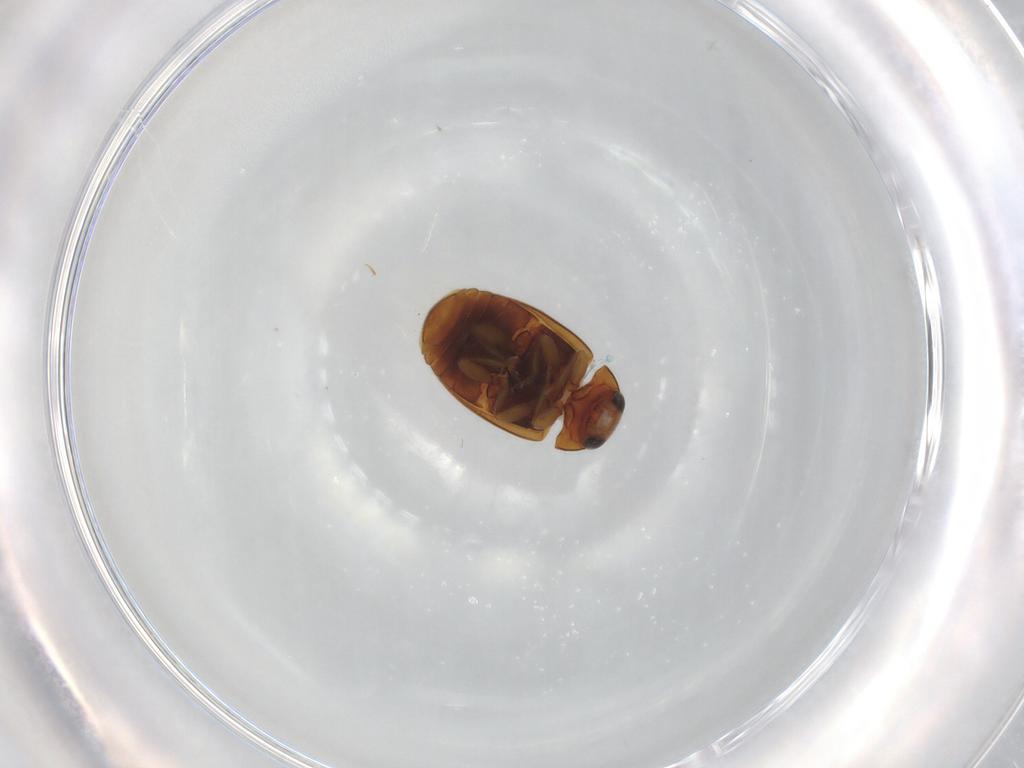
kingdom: Animalia
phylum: Arthropoda
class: Insecta
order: Coleoptera
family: Coccinellidae
